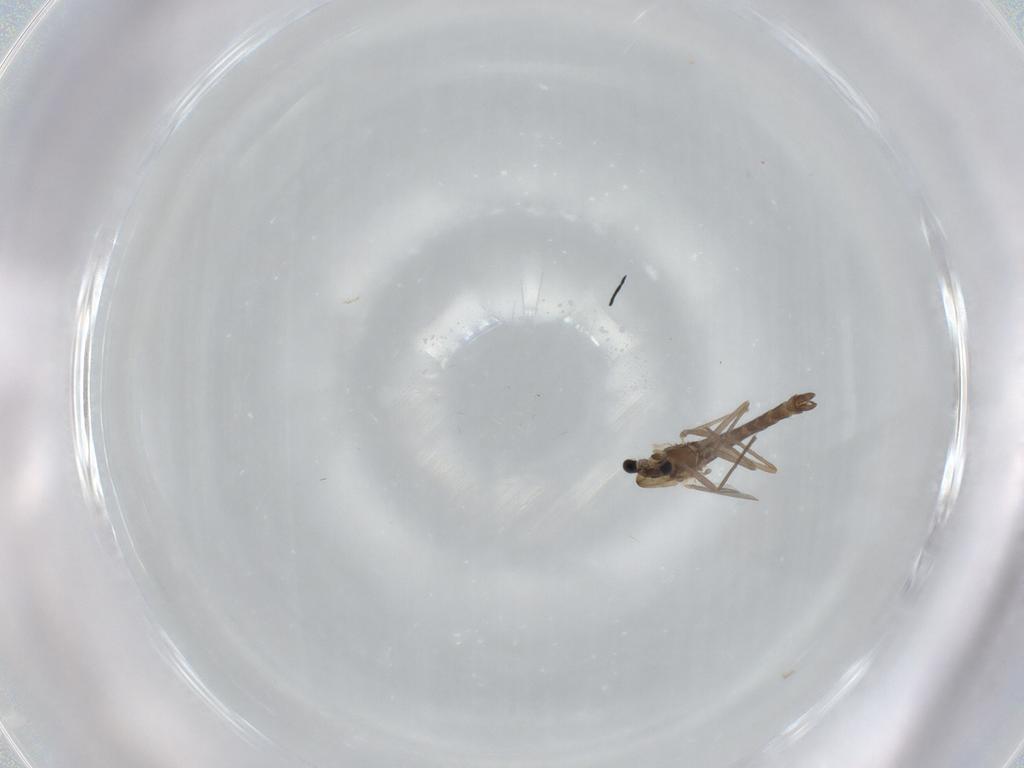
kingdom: Animalia
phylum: Arthropoda
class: Insecta
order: Diptera
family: Chironomidae
